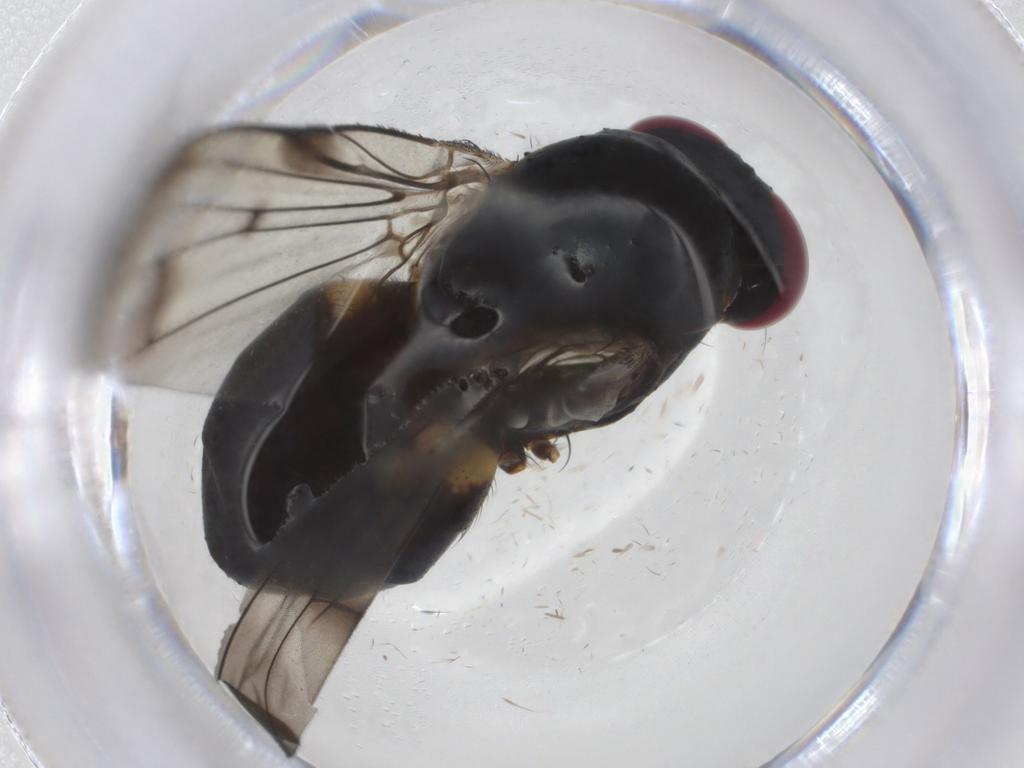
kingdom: Animalia
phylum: Arthropoda
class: Insecta
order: Diptera
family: Fannia
